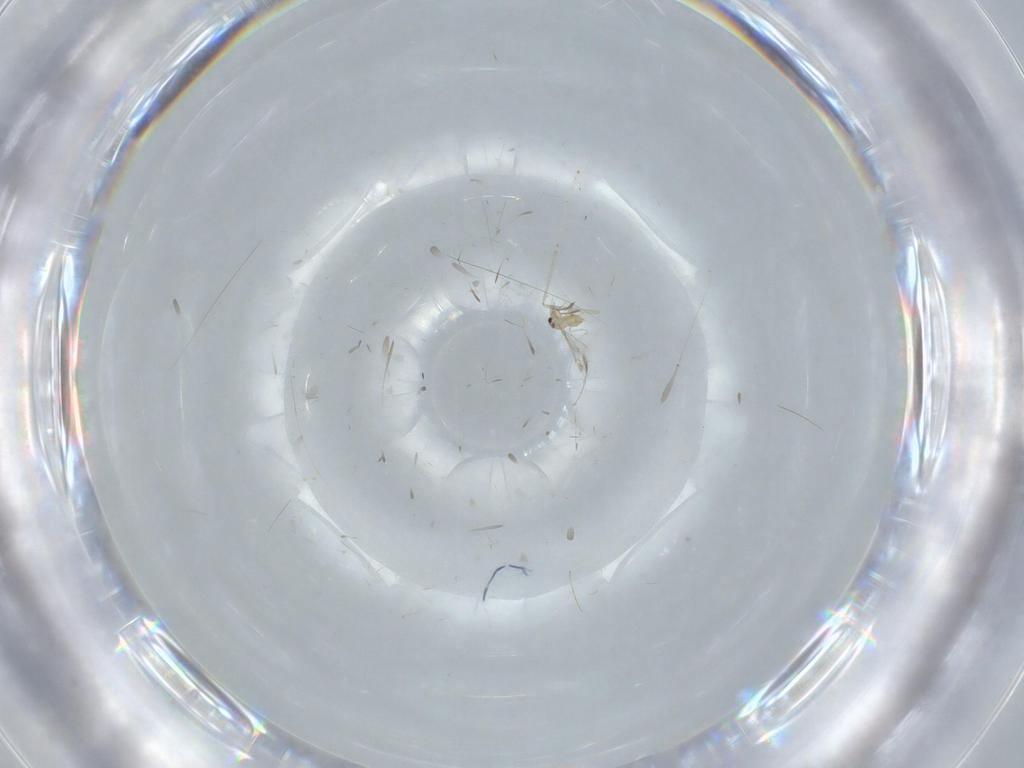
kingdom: Animalia
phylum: Arthropoda
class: Insecta
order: Diptera
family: Cecidomyiidae
